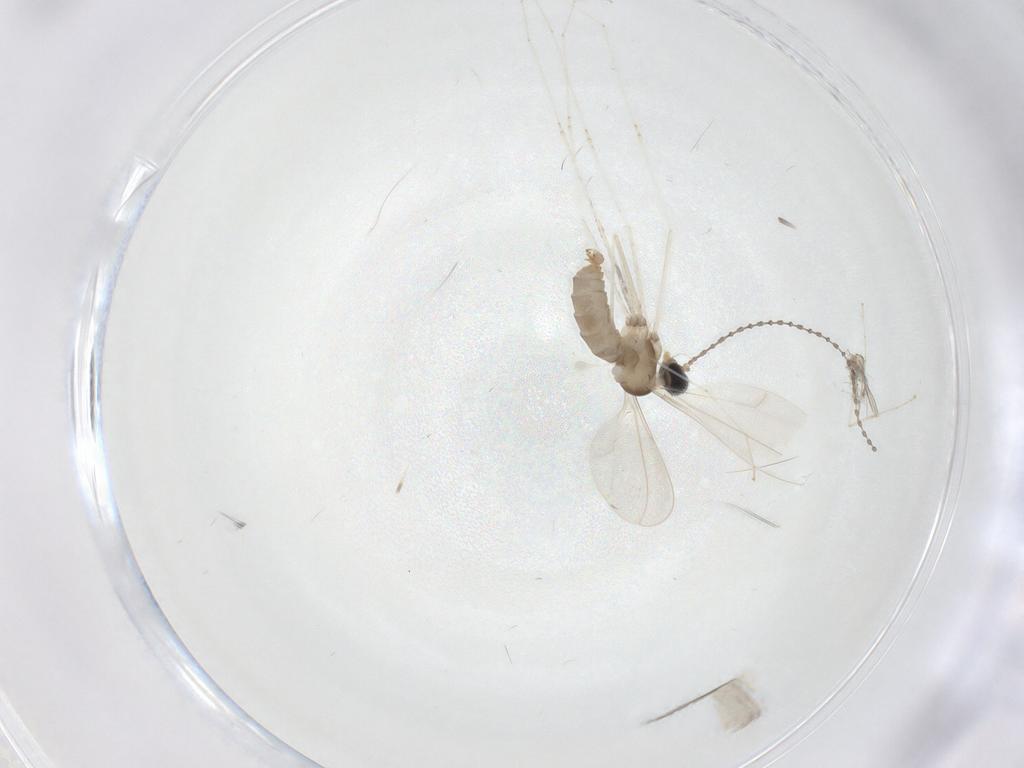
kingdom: Animalia
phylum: Arthropoda
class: Insecta
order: Diptera
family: Cecidomyiidae
